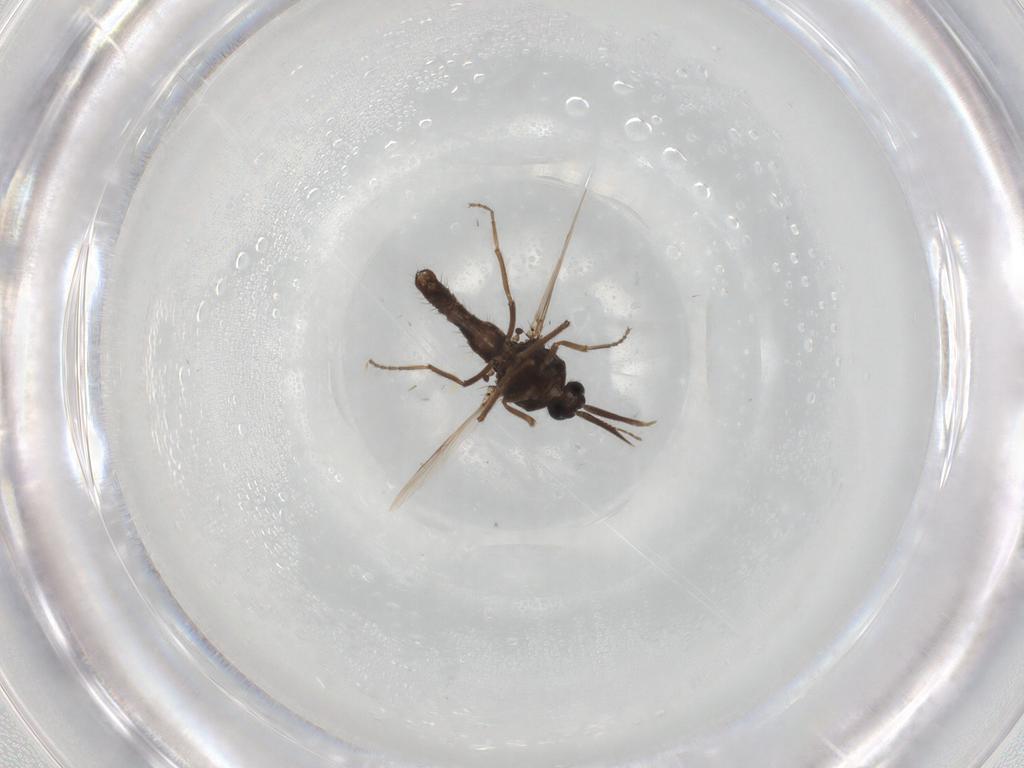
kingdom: Animalia
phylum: Arthropoda
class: Insecta
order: Diptera
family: Ceratopogonidae
